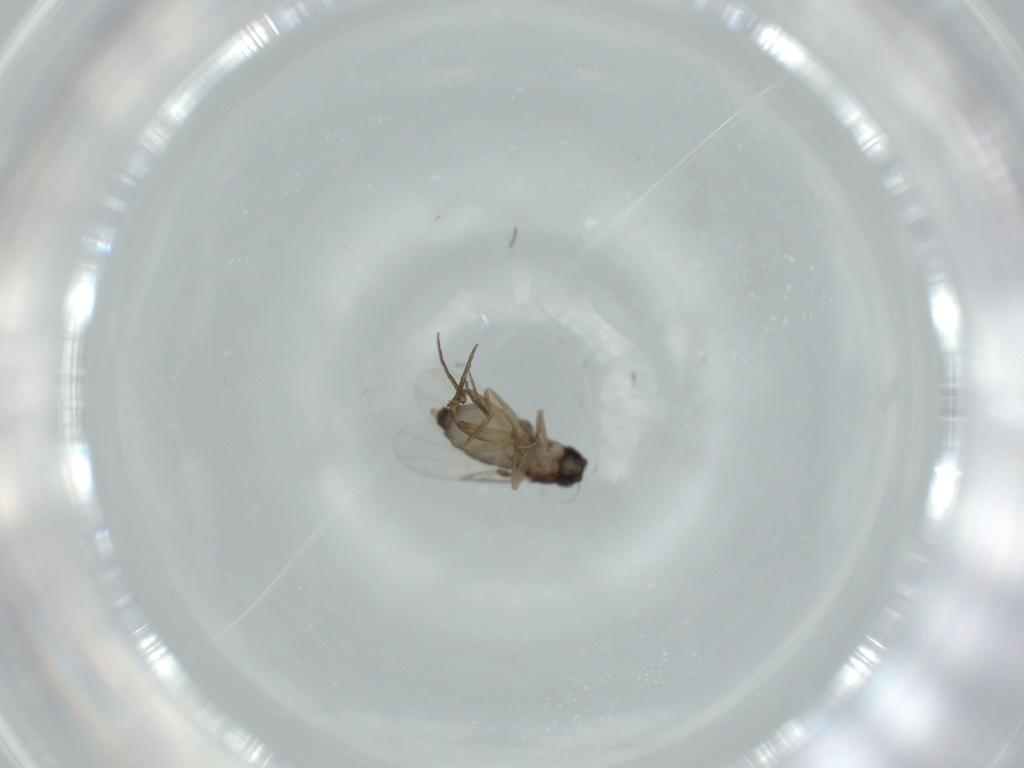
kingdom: Animalia
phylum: Arthropoda
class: Insecta
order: Diptera
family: Phoridae
